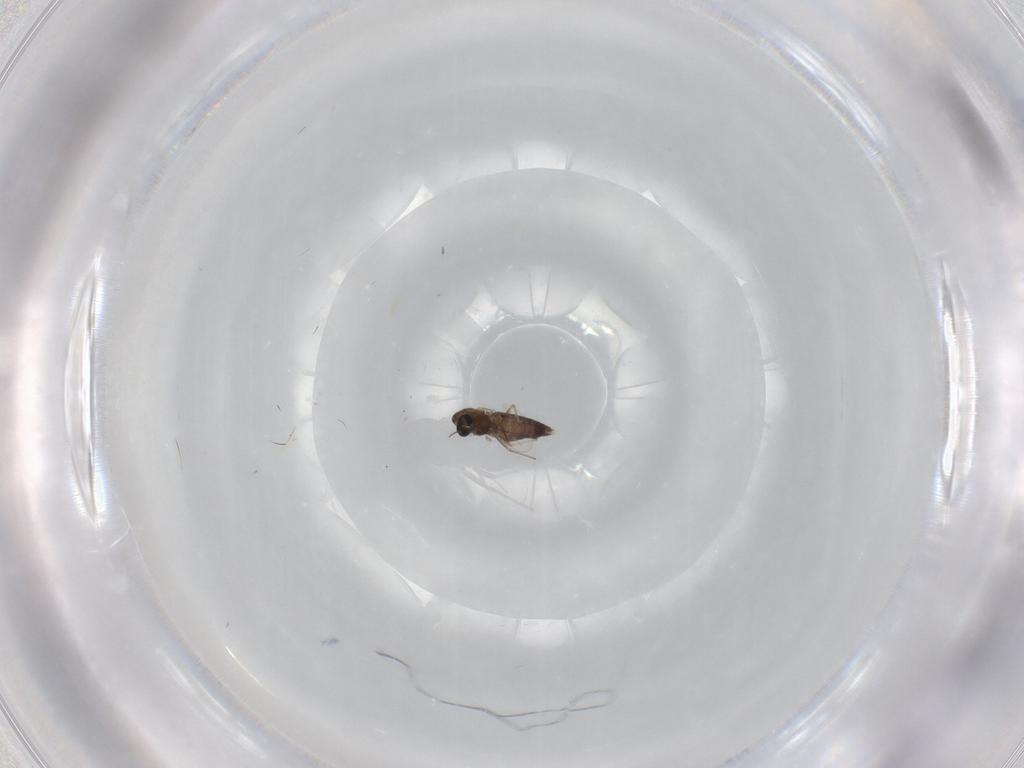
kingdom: Animalia
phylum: Arthropoda
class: Insecta
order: Diptera
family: Chironomidae
